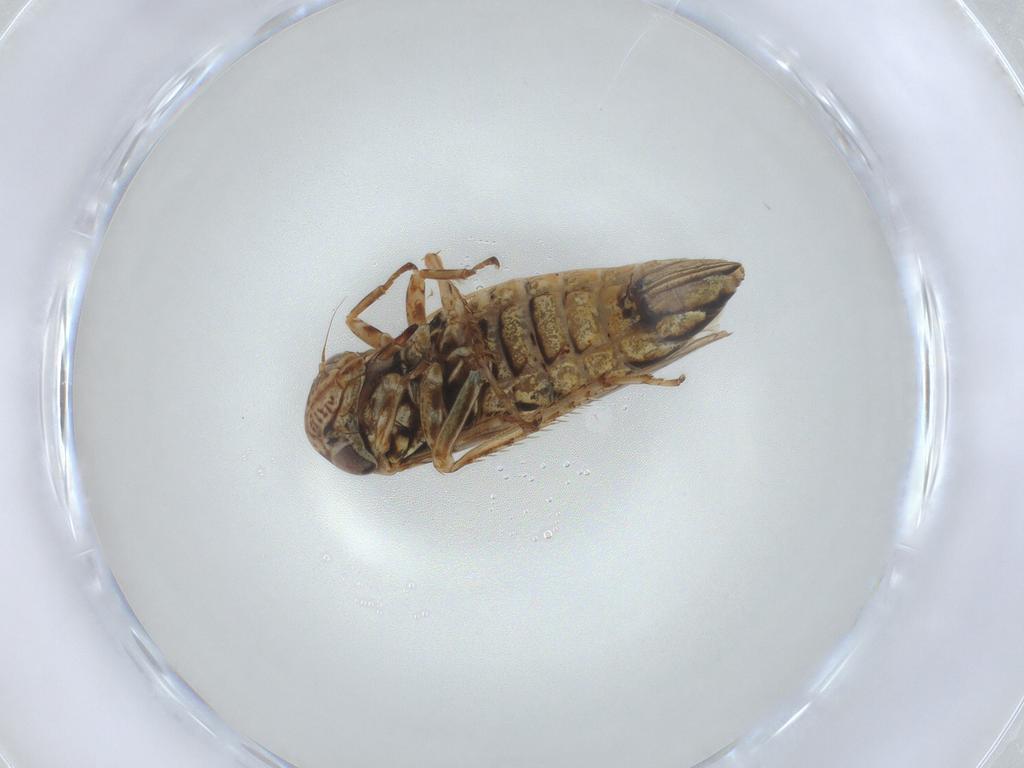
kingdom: Animalia
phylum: Arthropoda
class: Insecta
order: Hemiptera
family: Cicadellidae
